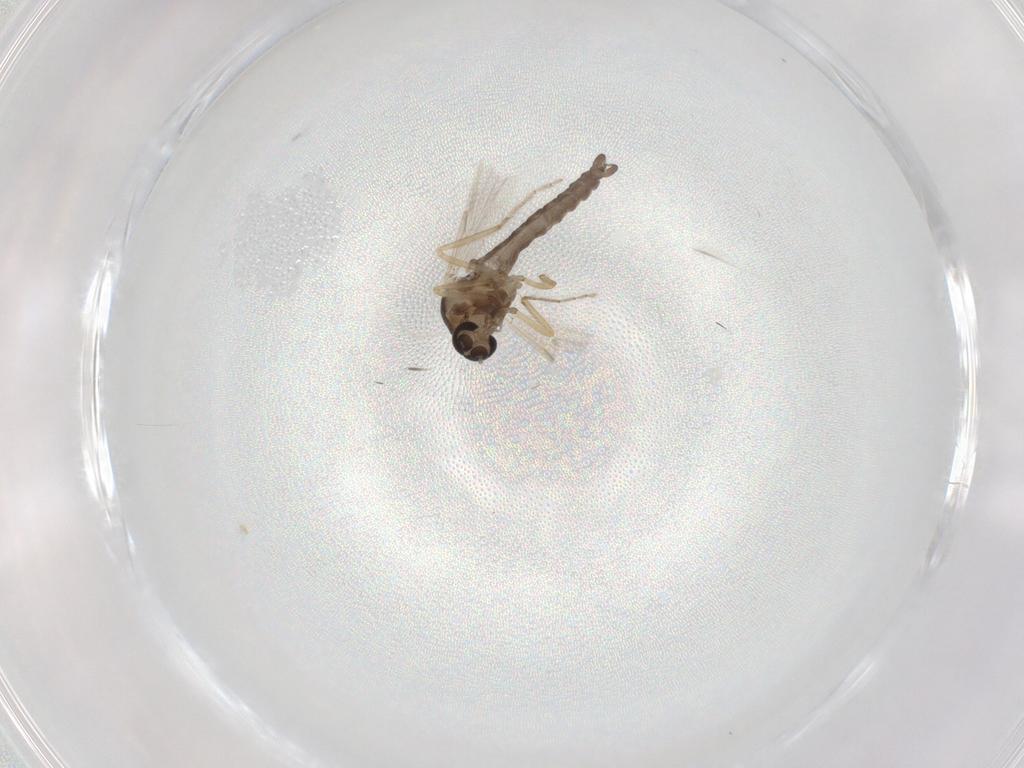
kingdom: Animalia
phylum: Arthropoda
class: Insecta
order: Diptera
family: Ceratopogonidae
